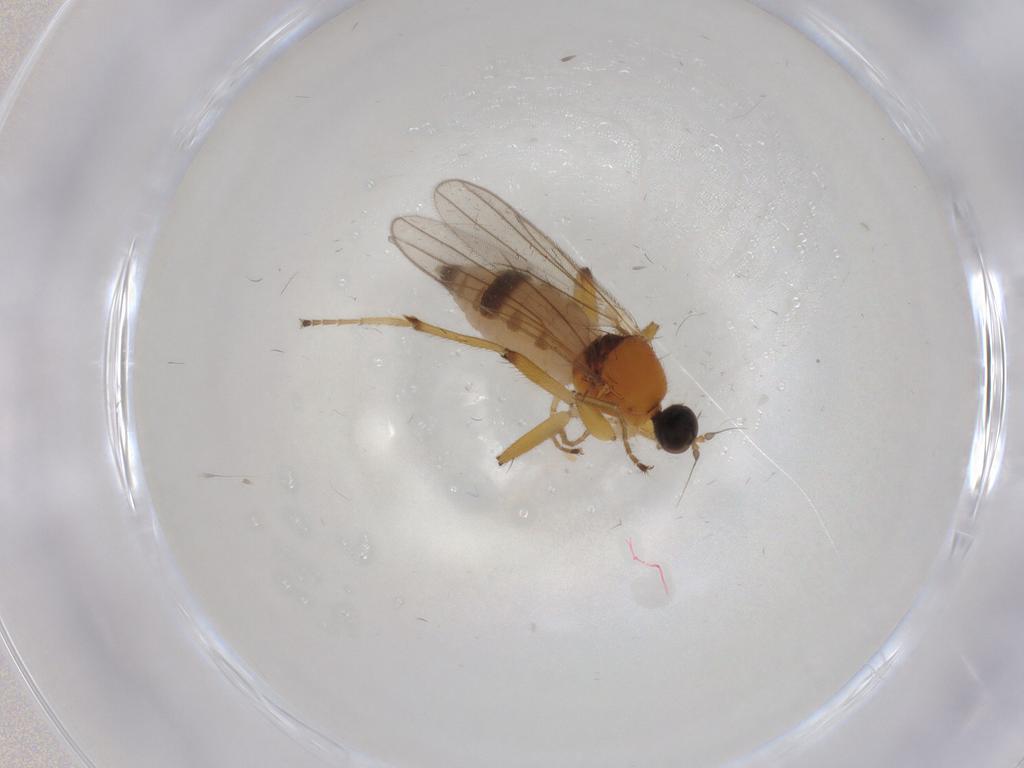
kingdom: Animalia
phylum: Arthropoda
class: Insecta
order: Diptera
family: Hybotidae
